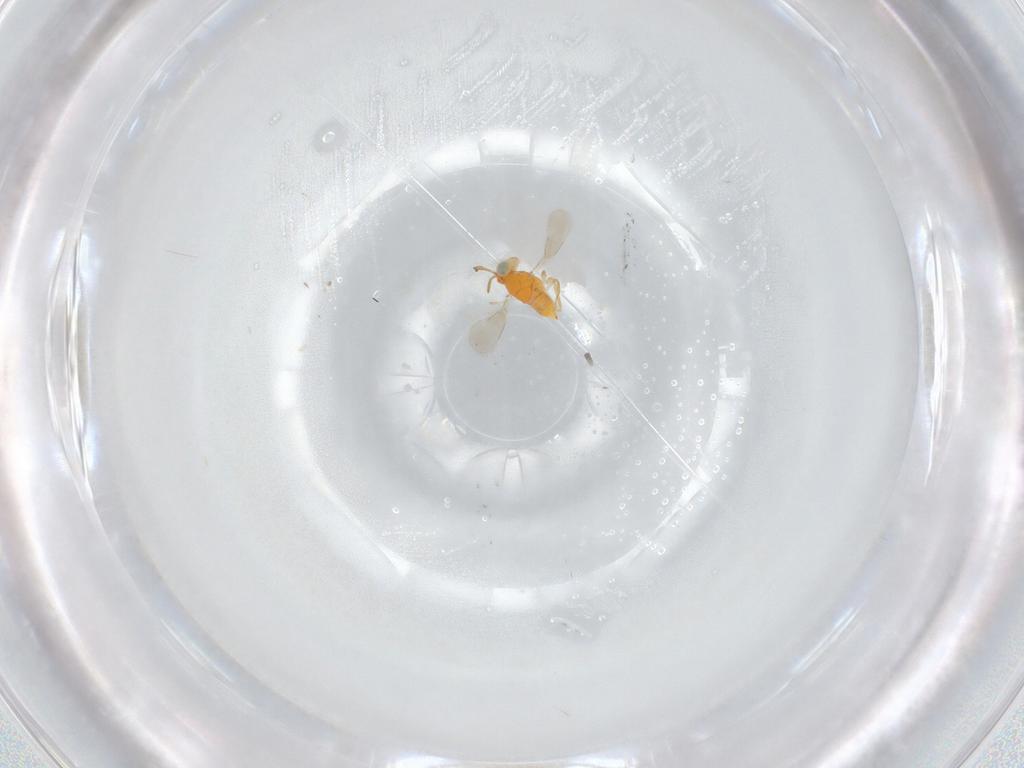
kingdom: Animalia
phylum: Arthropoda
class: Insecta
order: Hymenoptera
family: Aphelinidae
